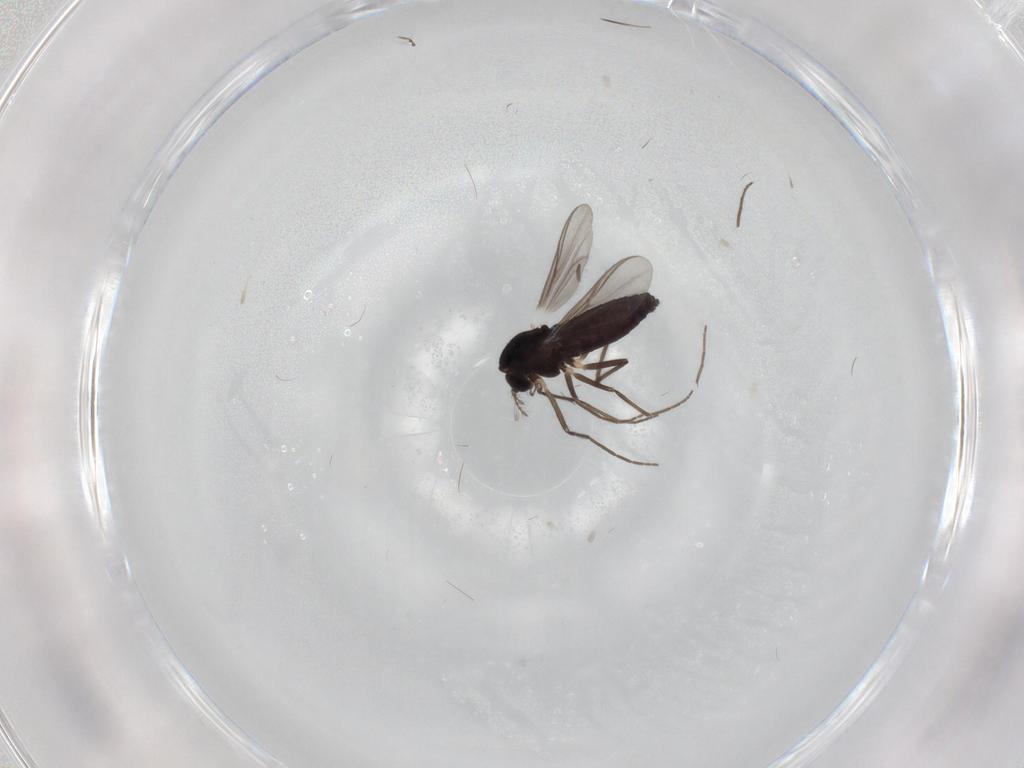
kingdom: Animalia
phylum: Arthropoda
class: Insecta
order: Diptera
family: Chironomidae
